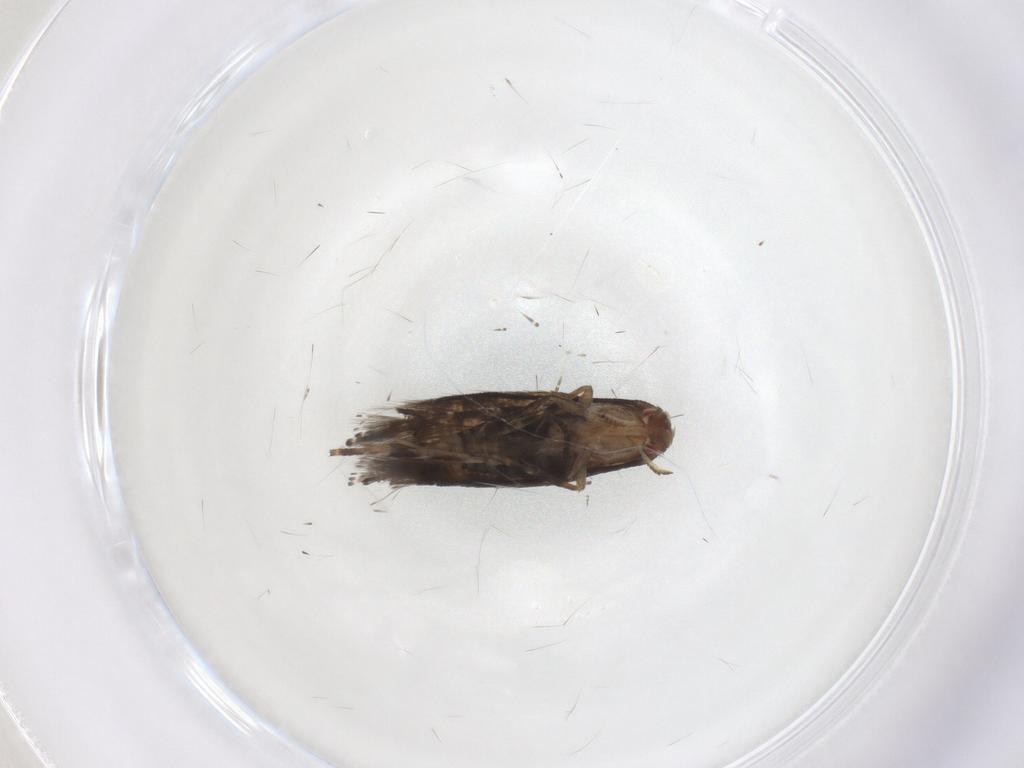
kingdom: Animalia
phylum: Arthropoda
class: Insecta
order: Lepidoptera
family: Momphidae
